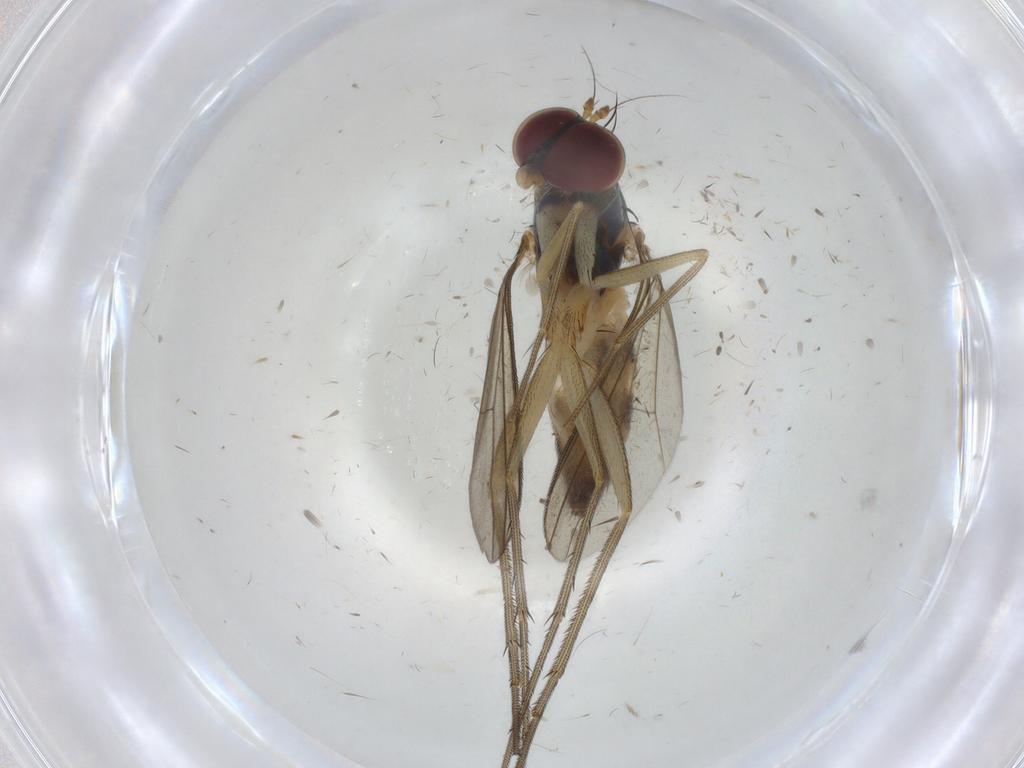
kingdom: Animalia
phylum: Arthropoda
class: Insecta
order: Diptera
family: Dolichopodidae
